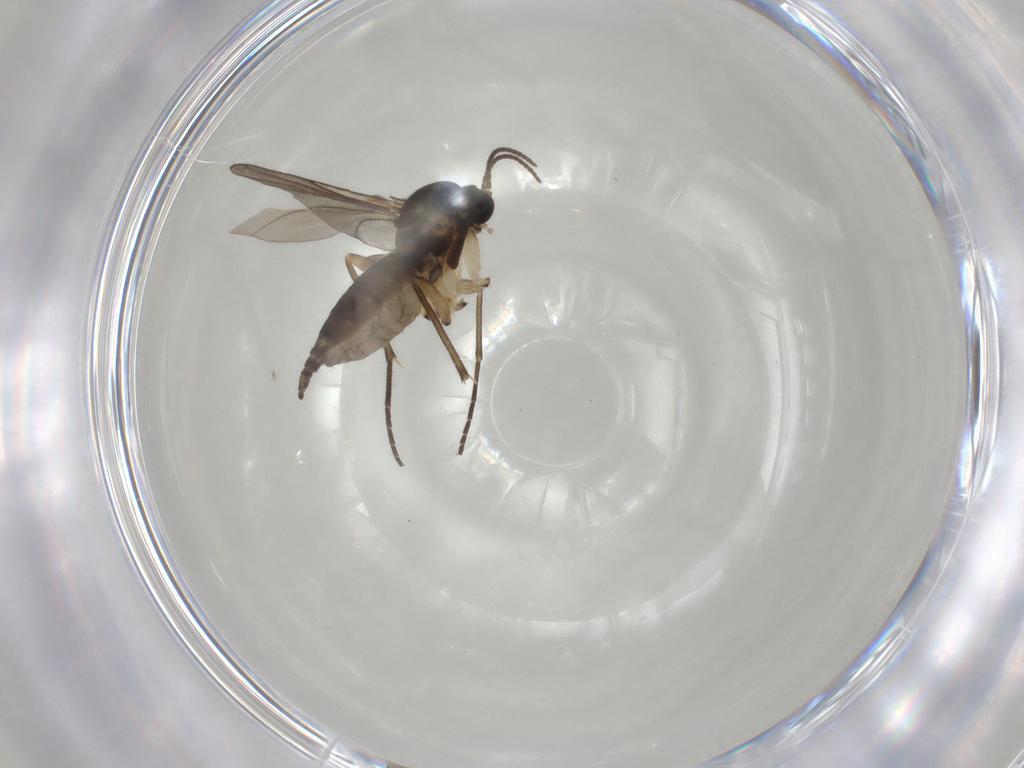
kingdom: Animalia
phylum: Arthropoda
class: Insecta
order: Diptera
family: Sciaridae
